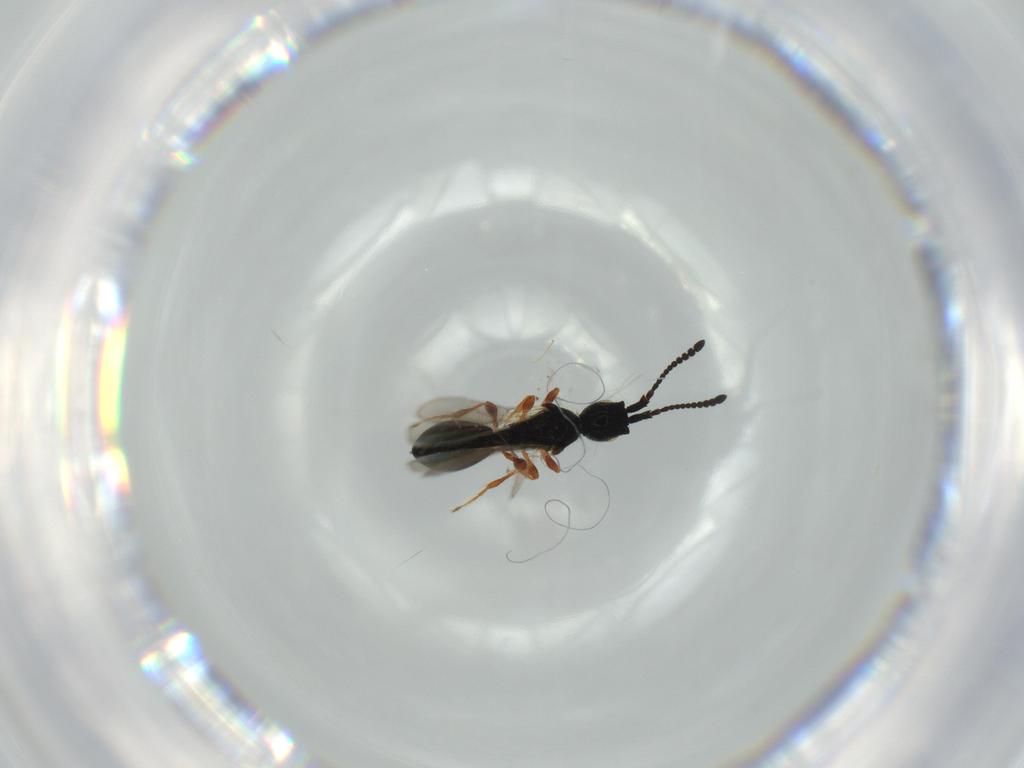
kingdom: Animalia
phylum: Arthropoda
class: Insecta
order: Hymenoptera
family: Diapriidae
